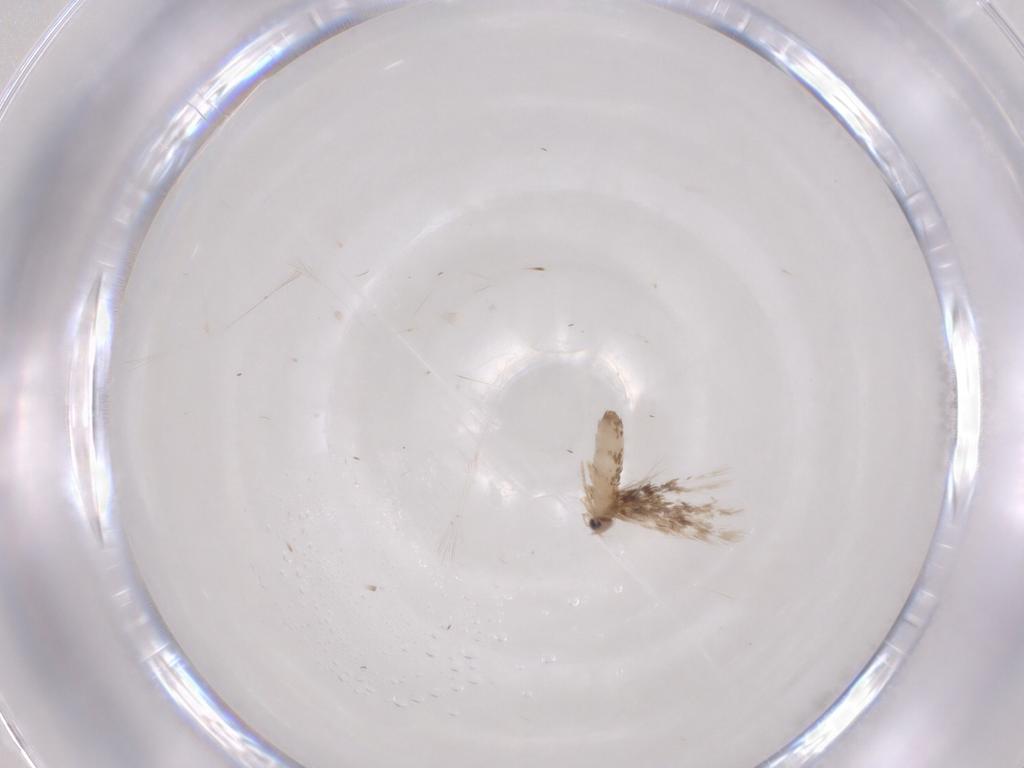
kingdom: Animalia
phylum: Arthropoda
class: Insecta
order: Lepidoptera
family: Nepticulidae
